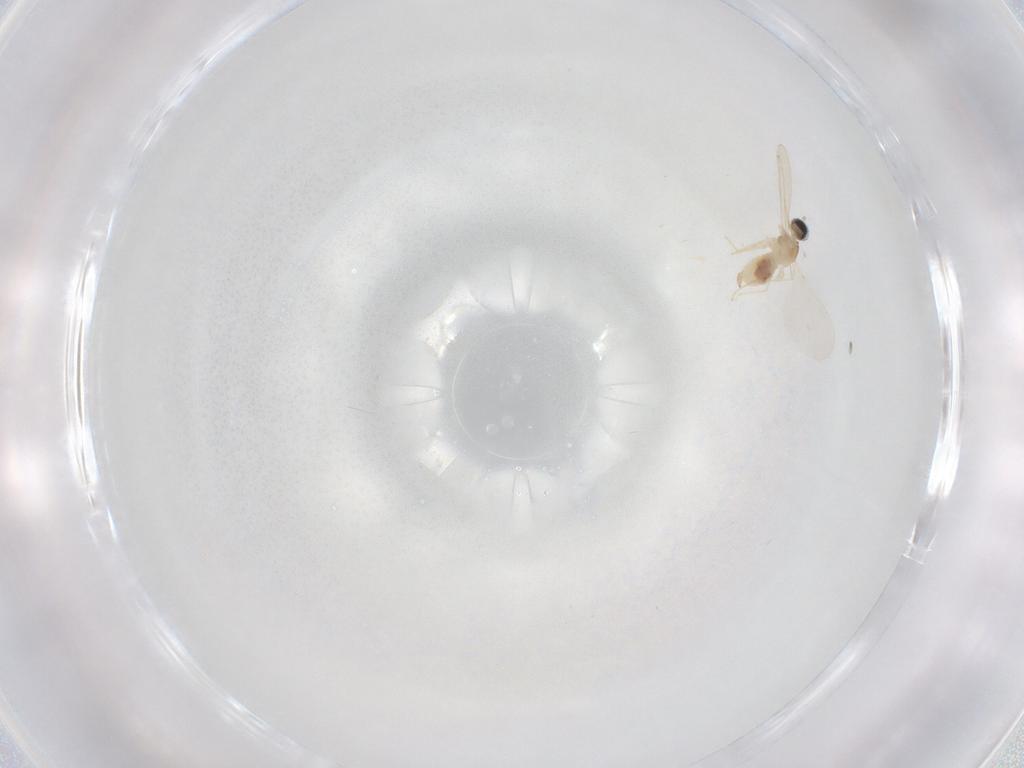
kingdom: Animalia
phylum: Arthropoda
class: Insecta
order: Diptera
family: Cecidomyiidae
